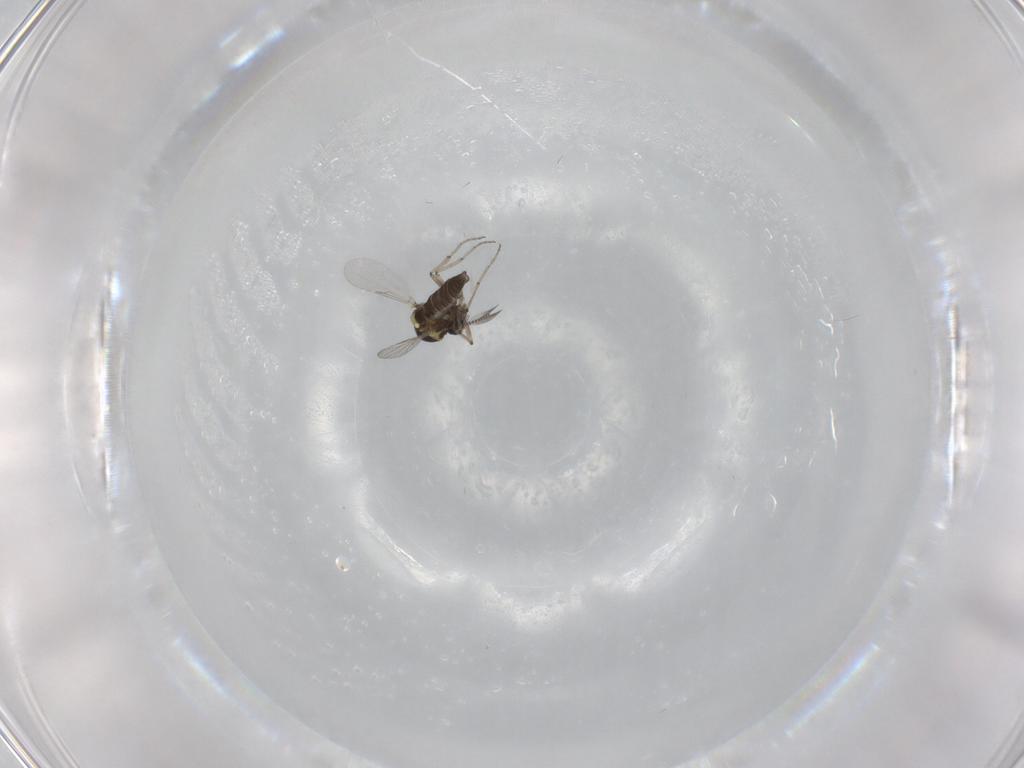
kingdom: Animalia
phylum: Arthropoda
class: Insecta
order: Diptera
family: Ceratopogonidae
